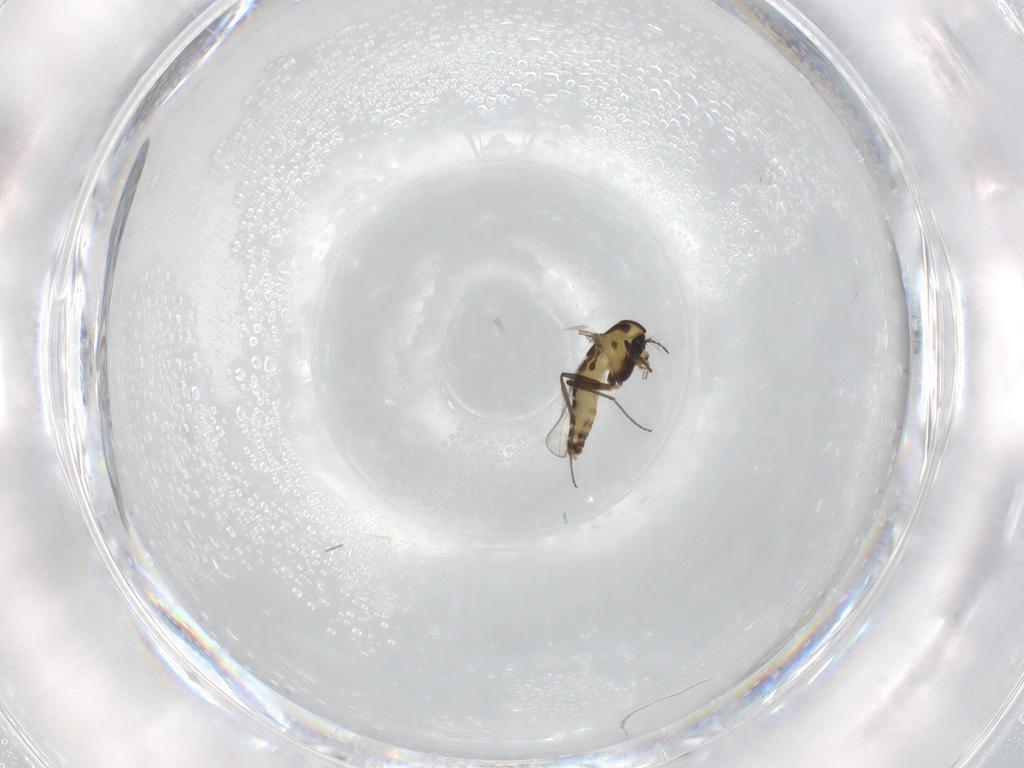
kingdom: Animalia
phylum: Arthropoda
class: Insecta
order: Diptera
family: Chironomidae
